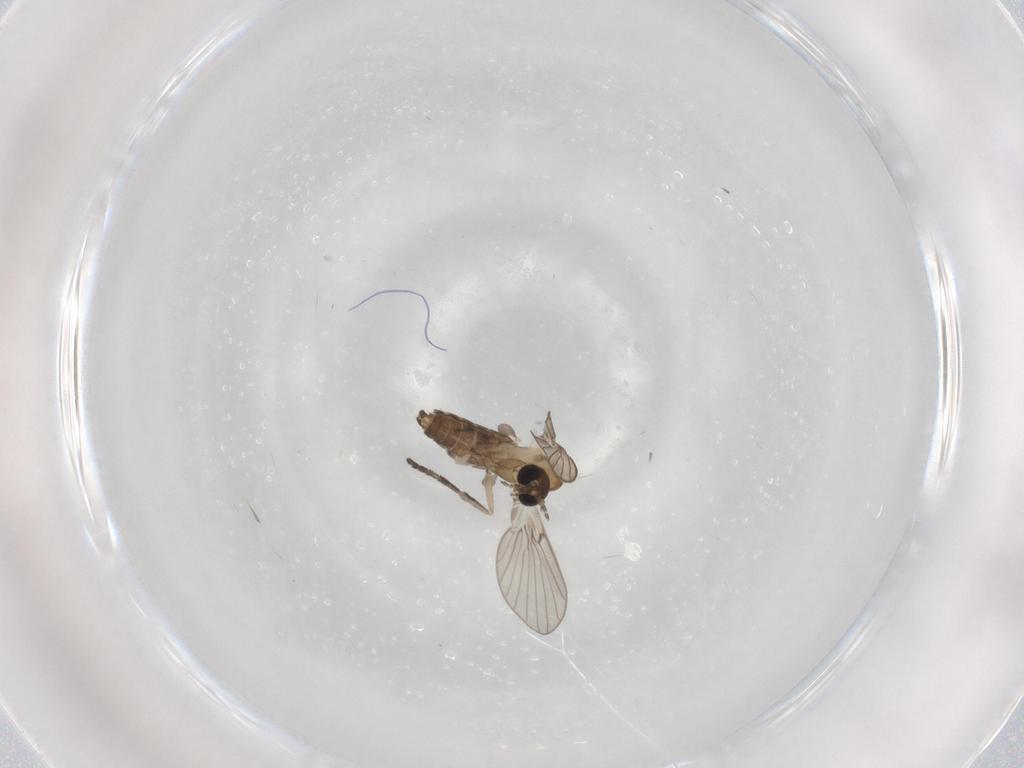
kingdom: Animalia
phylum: Arthropoda
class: Insecta
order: Diptera
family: Psychodidae
